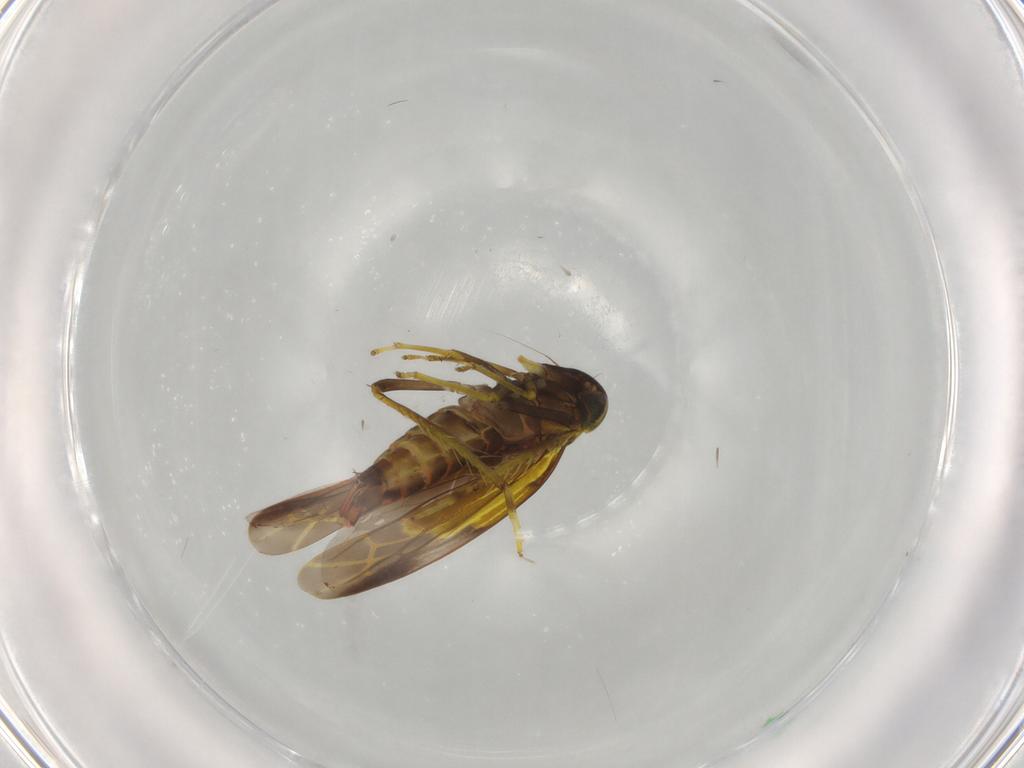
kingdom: Animalia
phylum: Arthropoda
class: Insecta
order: Hemiptera
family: Cicadellidae
